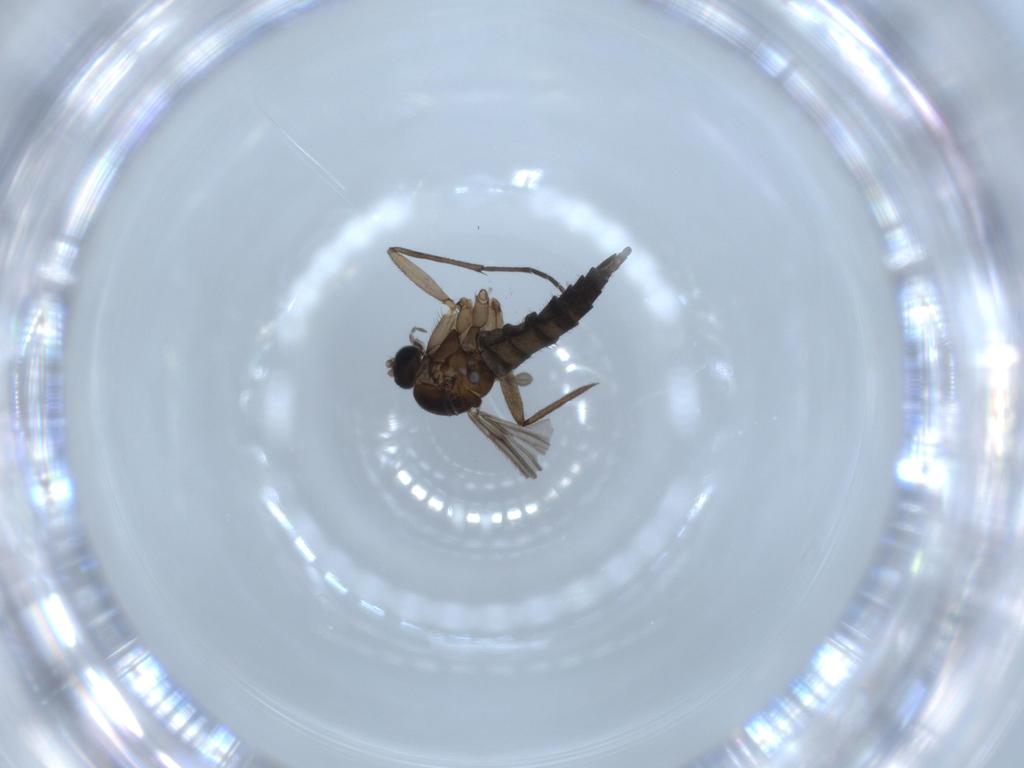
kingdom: Animalia
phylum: Arthropoda
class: Insecta
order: Diptera
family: Sciaridae
